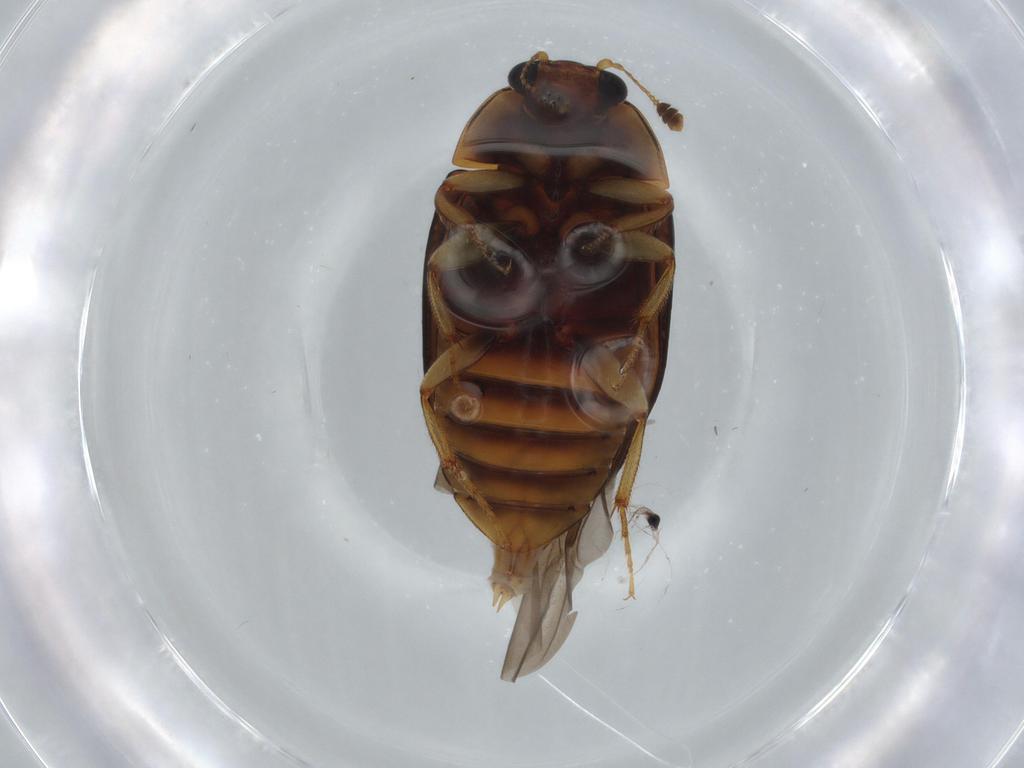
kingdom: Animalia
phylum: Arthropoda
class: Insecta
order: Coleoptera
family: Nitidulidae
